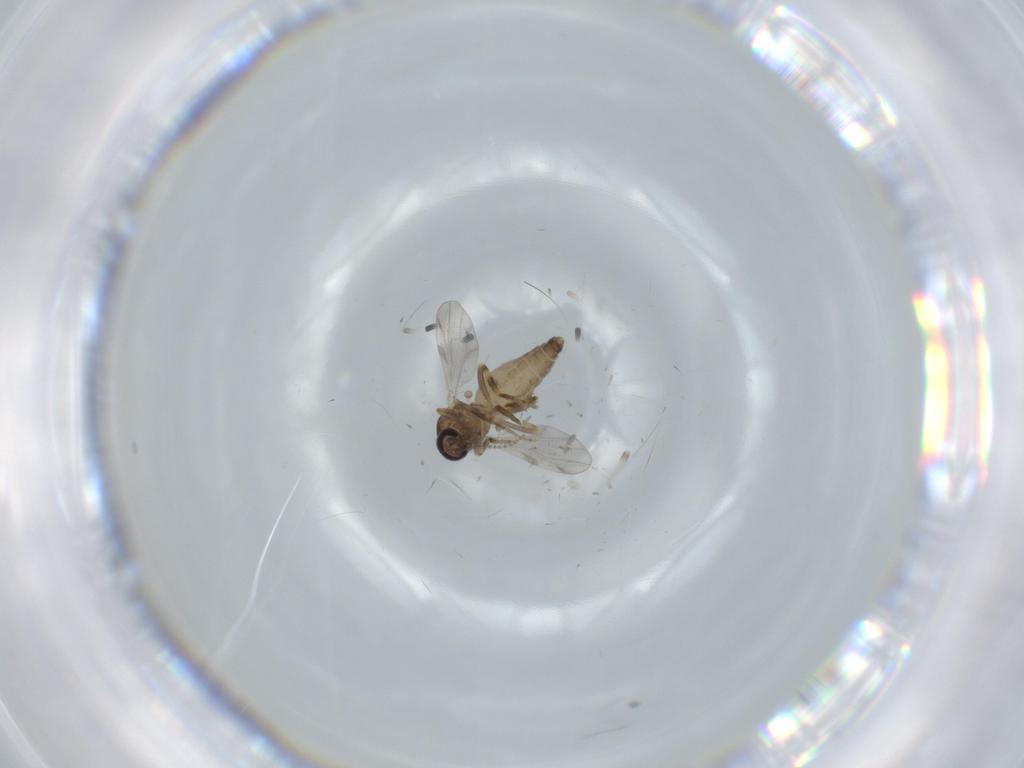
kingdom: Animalia
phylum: Arthropoda
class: Insecta
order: Diptera
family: Ceratopogonidae
